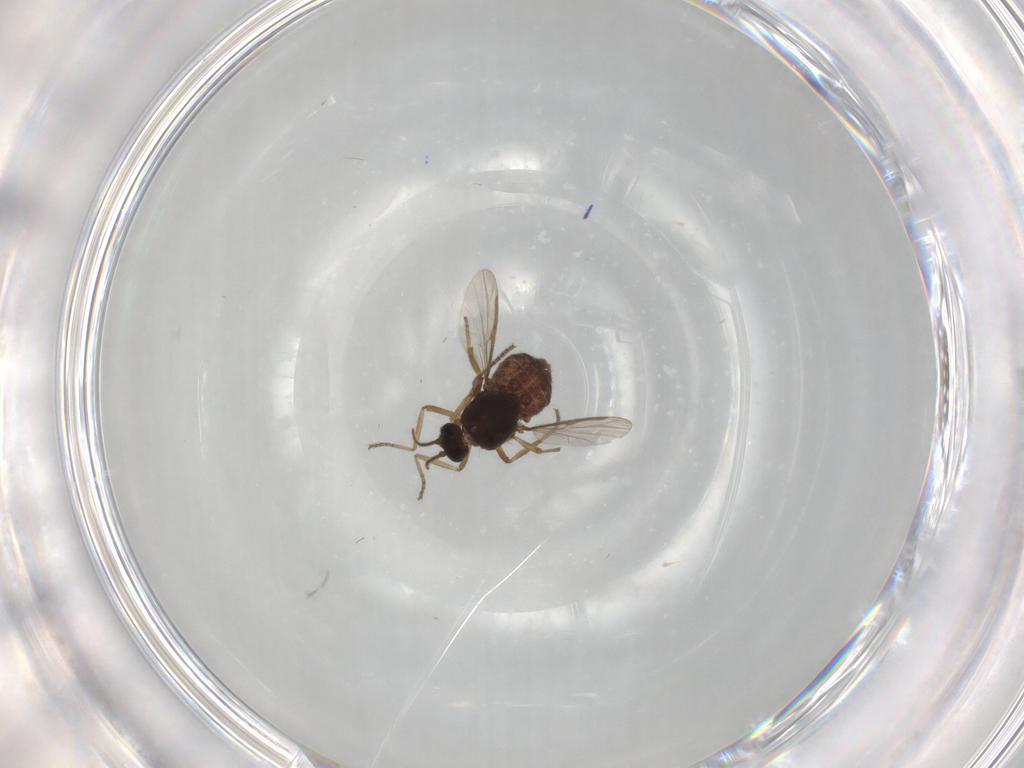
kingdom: Animalia
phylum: Arthropoda
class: Insecta
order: Diptera
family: Ceratopogonidae
